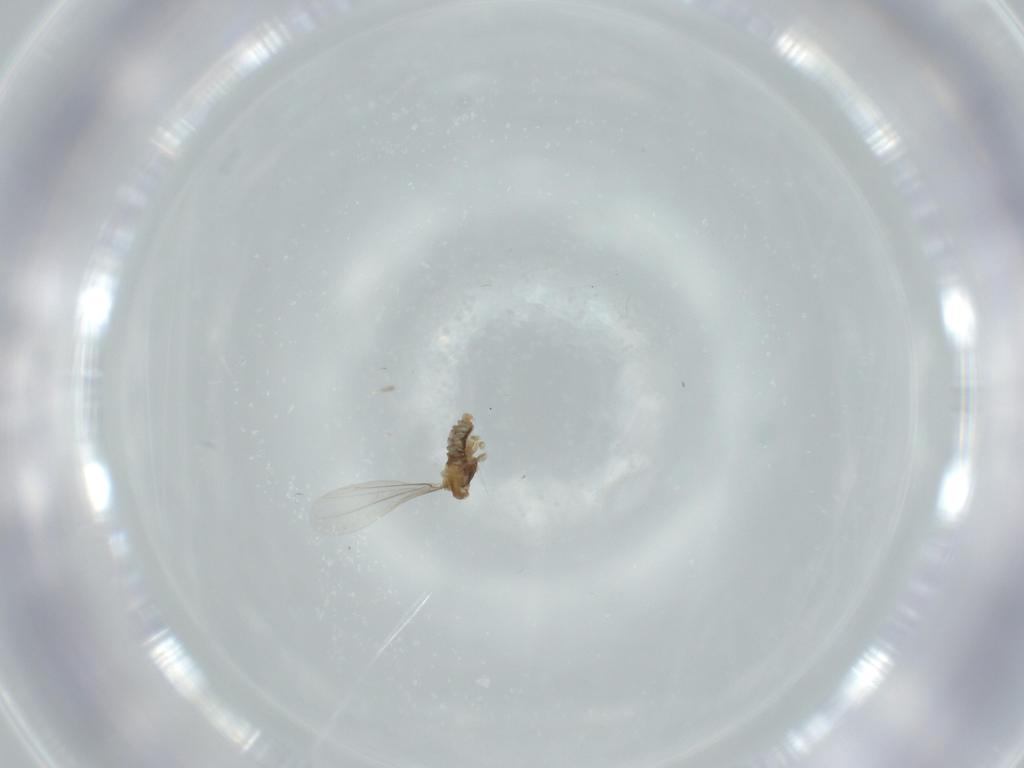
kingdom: Animalia
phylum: Arthropoda
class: Insecta
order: Diptera
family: Cecidomyiidae
